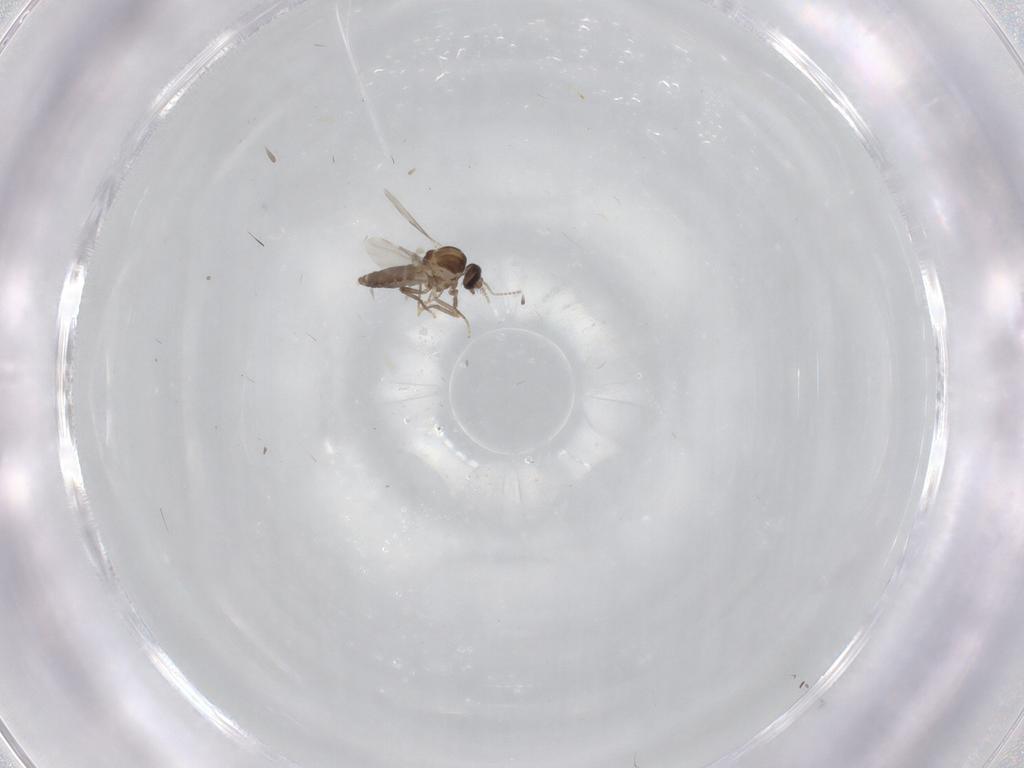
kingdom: Animalia
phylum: Arthropoda
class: Insecta
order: Diptera
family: Ceratopogonidae
